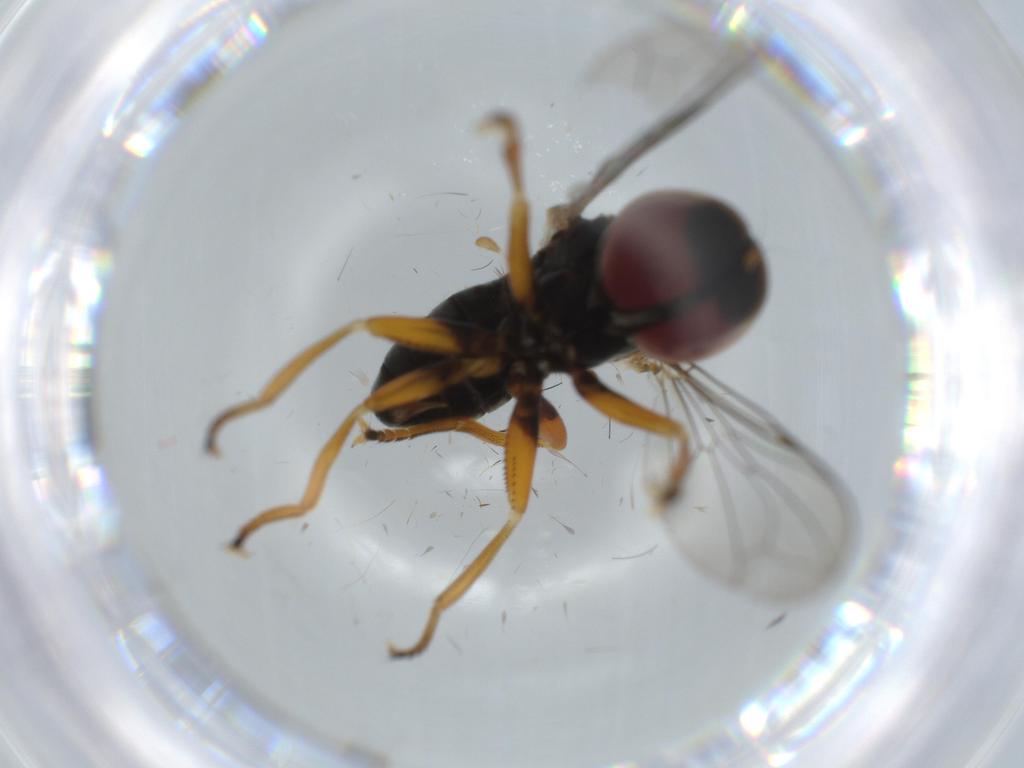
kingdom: Animalia
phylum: Arthropoda
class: Insecta
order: Diptera
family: Pipunculidae
